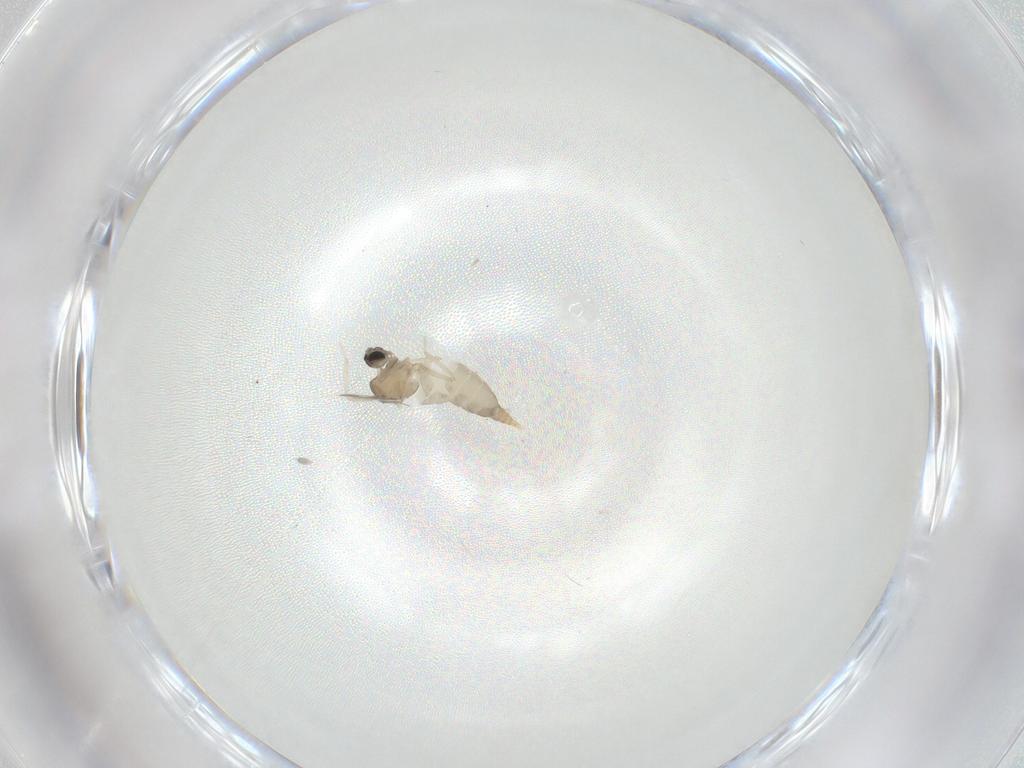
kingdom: Animalia
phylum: Arthropoda
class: Insecta
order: Diptera
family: Cecidomyiidae
